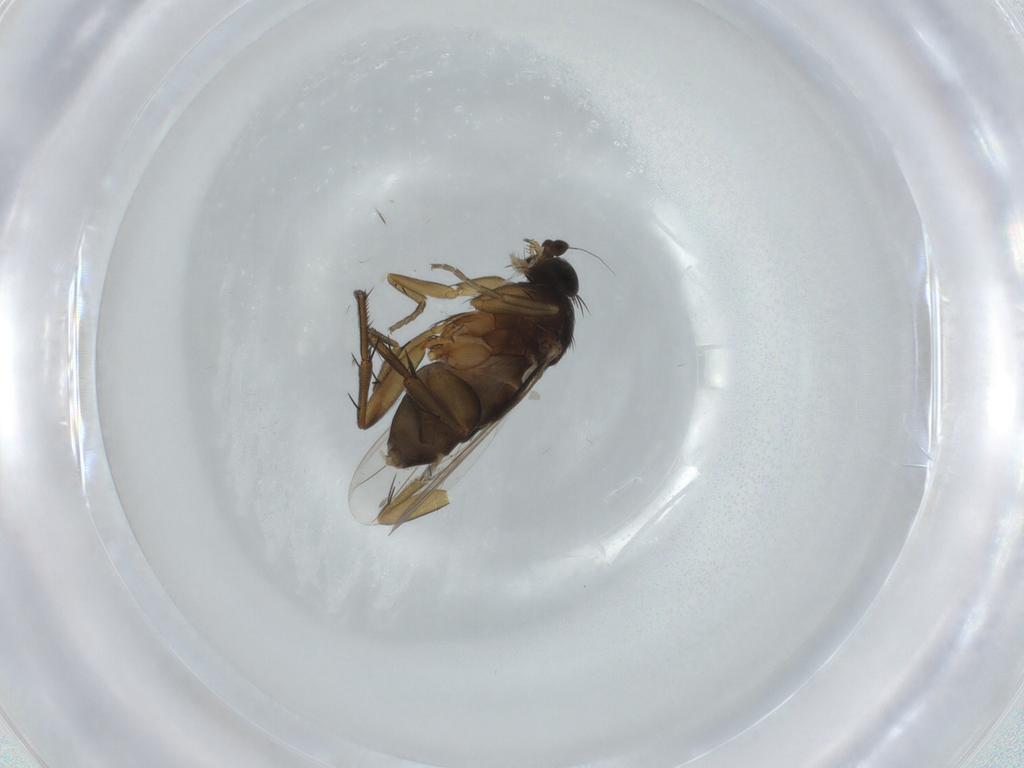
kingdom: Animalia
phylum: Arthropoda
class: Insecta
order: Diptera
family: Phoridae
